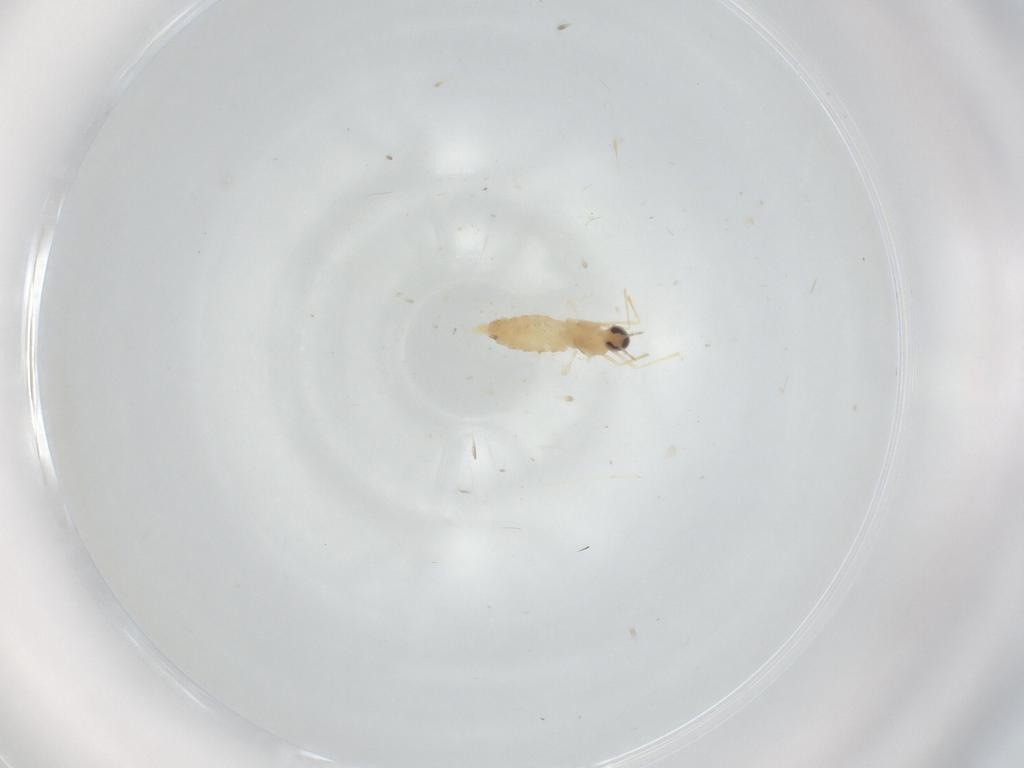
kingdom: Animalia
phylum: Arthropoda
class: Insecta
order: Diptera
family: Cecidomyiidae
